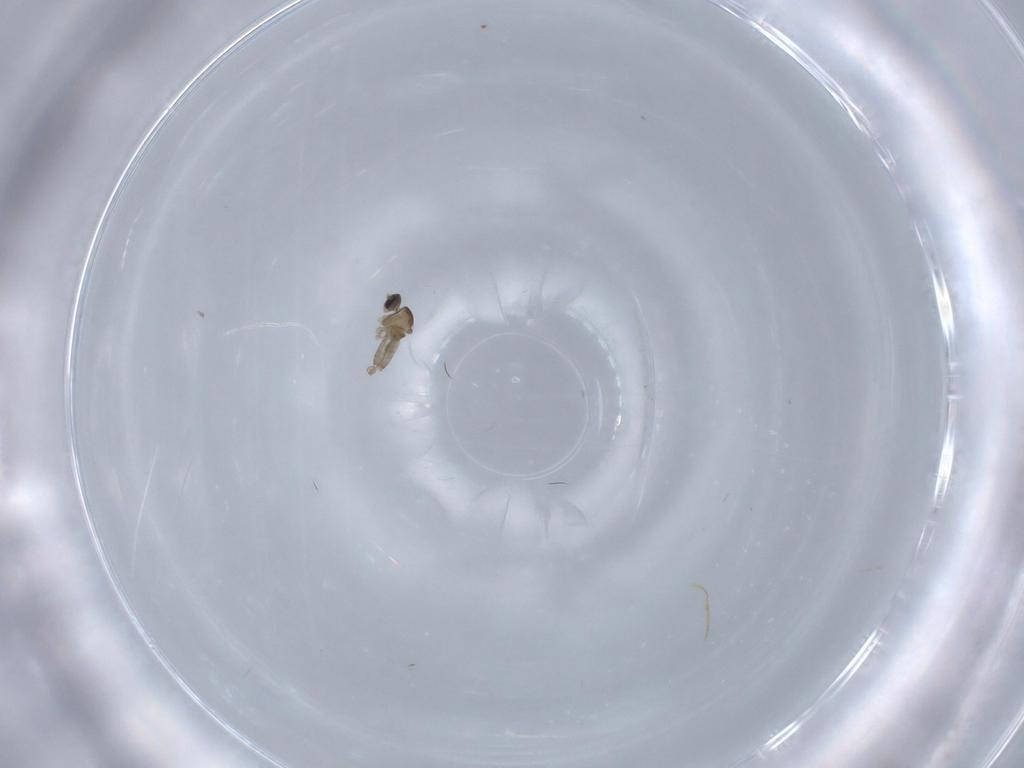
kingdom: Animalia
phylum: Arthropoda
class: Insecta
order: Diptera
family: Cecidomyiidae
